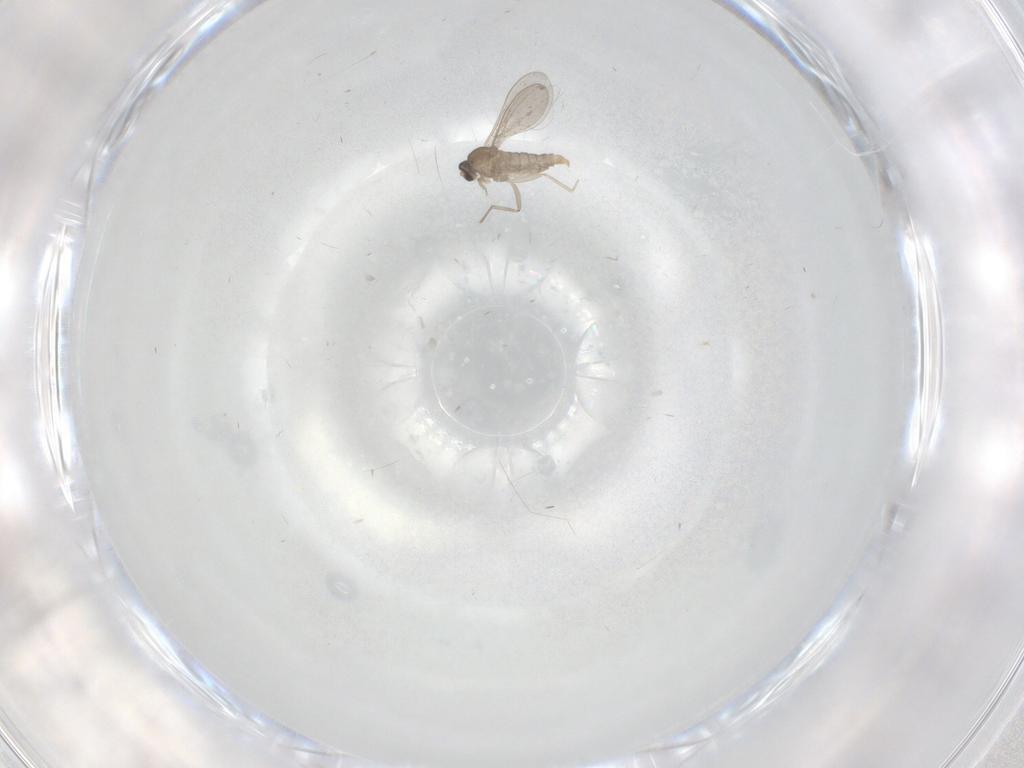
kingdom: Animalia
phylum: Arthropoda
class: Insecta
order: Diptera
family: Cecidomyiidae
